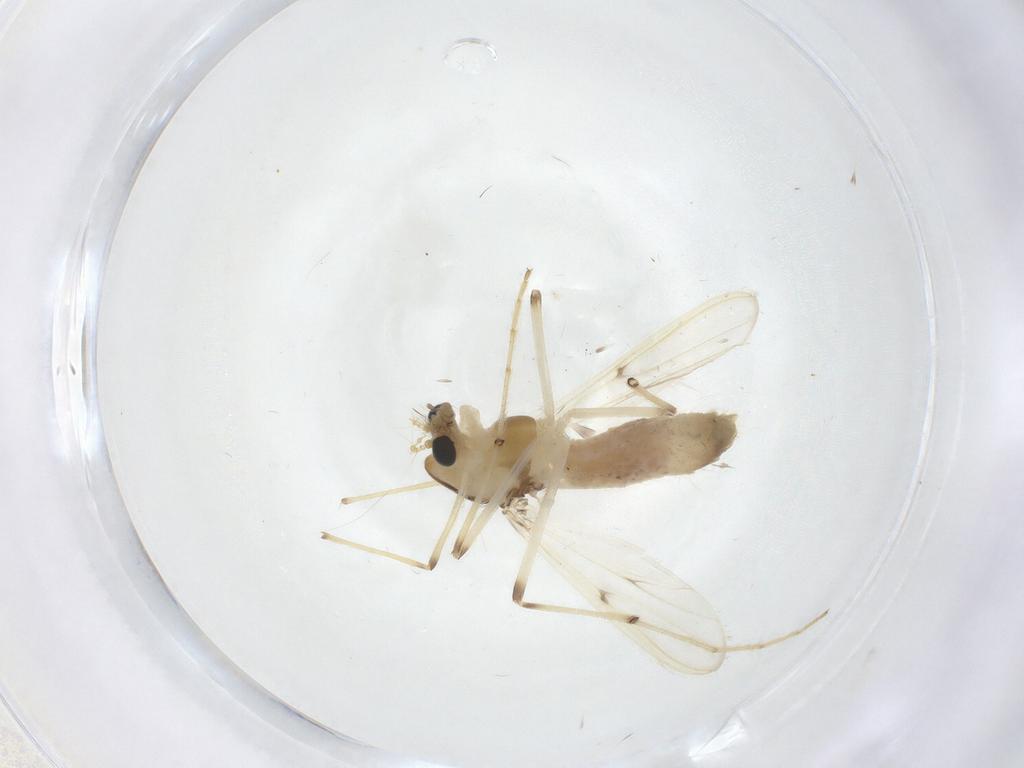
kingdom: Animalia
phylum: Arthropoda
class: Insecta
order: Diptera
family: Chironomidae
